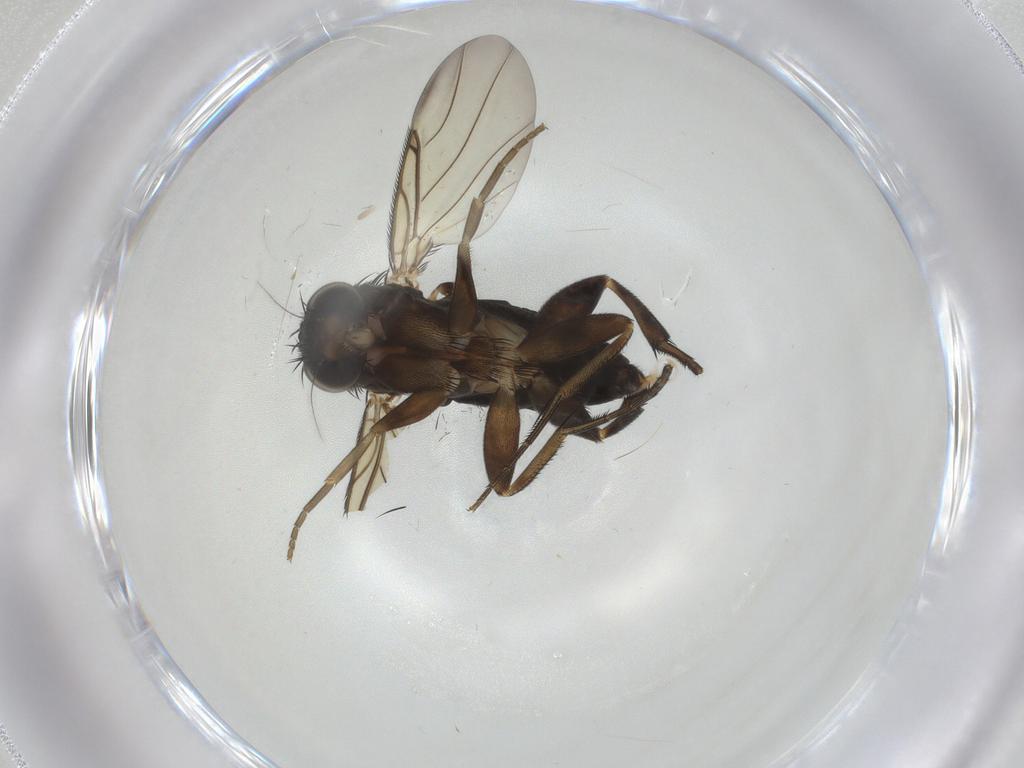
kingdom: Animalia
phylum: Arthropoda
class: Insecta
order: Diptera
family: Phoridae
